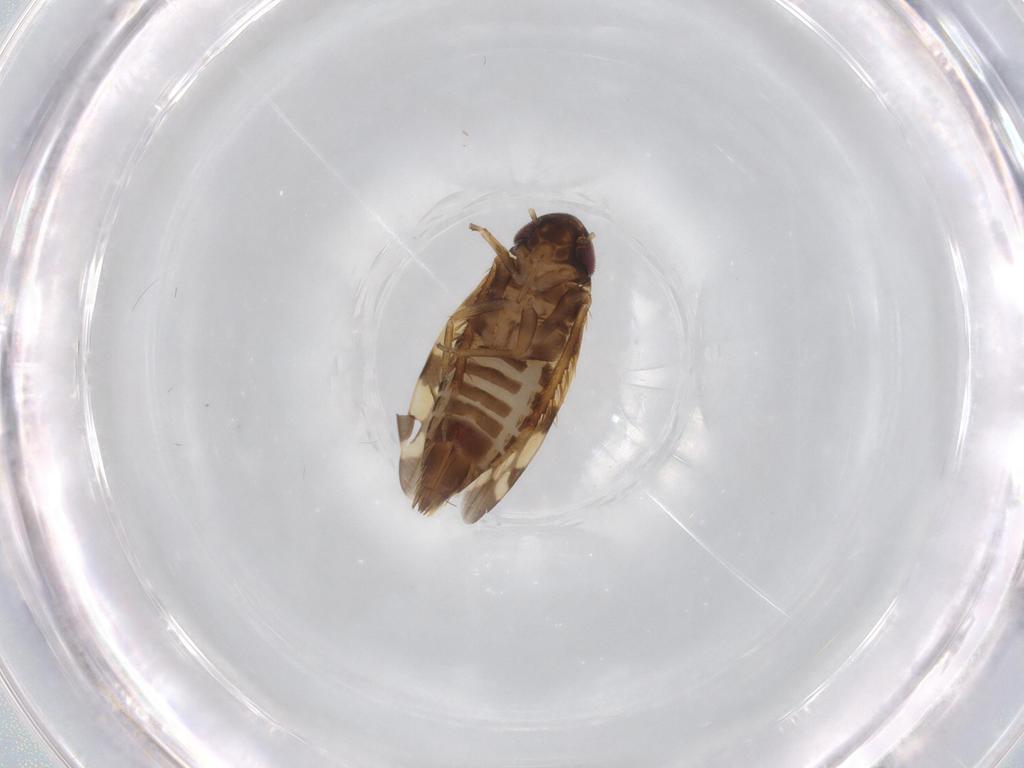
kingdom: Animalia
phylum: Arthropoda
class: Insecta
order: Hemiptera
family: Cicadellidae
